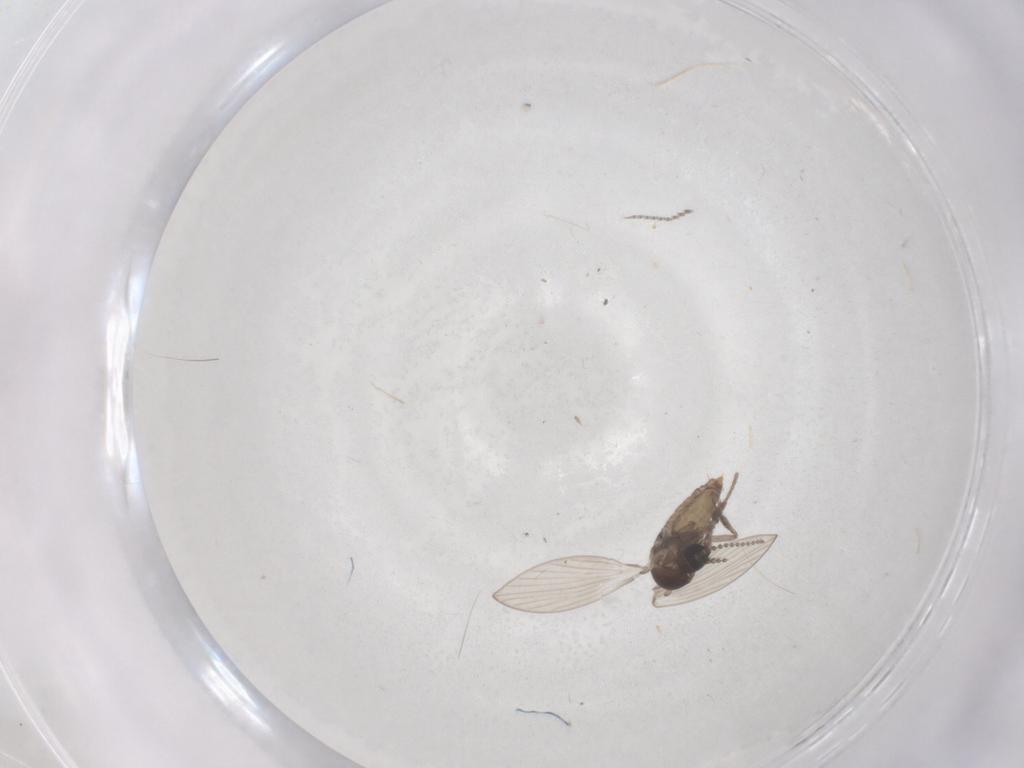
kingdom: Animalia
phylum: Arthropoda
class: Insecta
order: Diptera
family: Psychodidae
